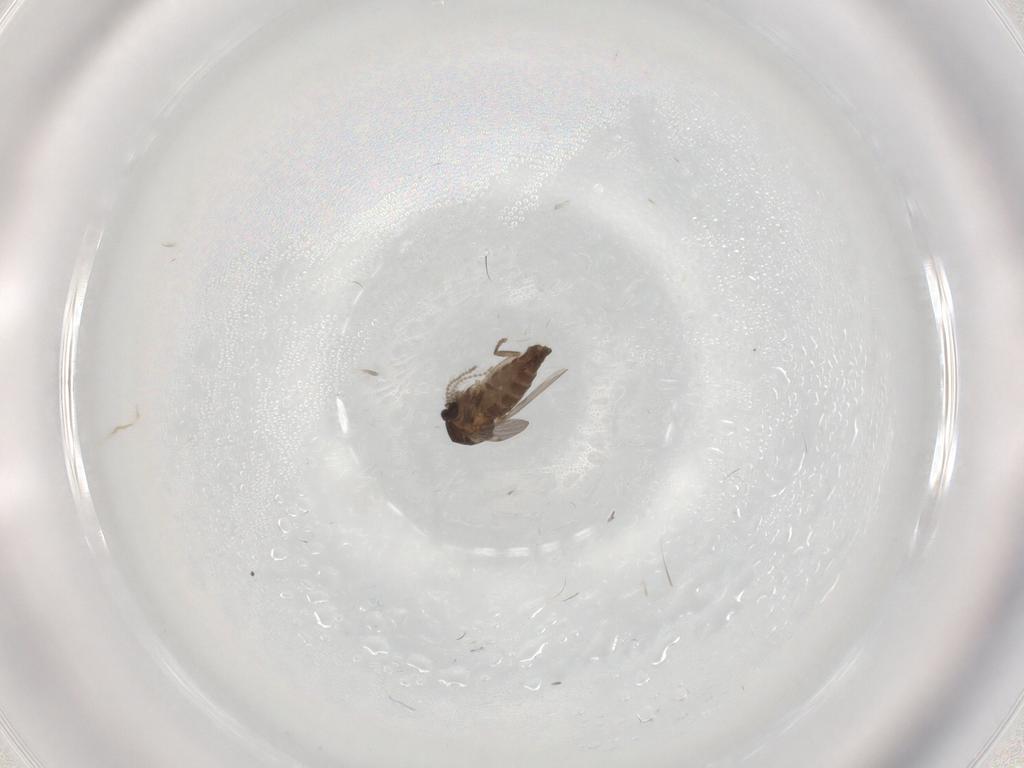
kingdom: Animalia
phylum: Arthropoda
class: Insecta
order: Diptera
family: Ceratopogonidae
